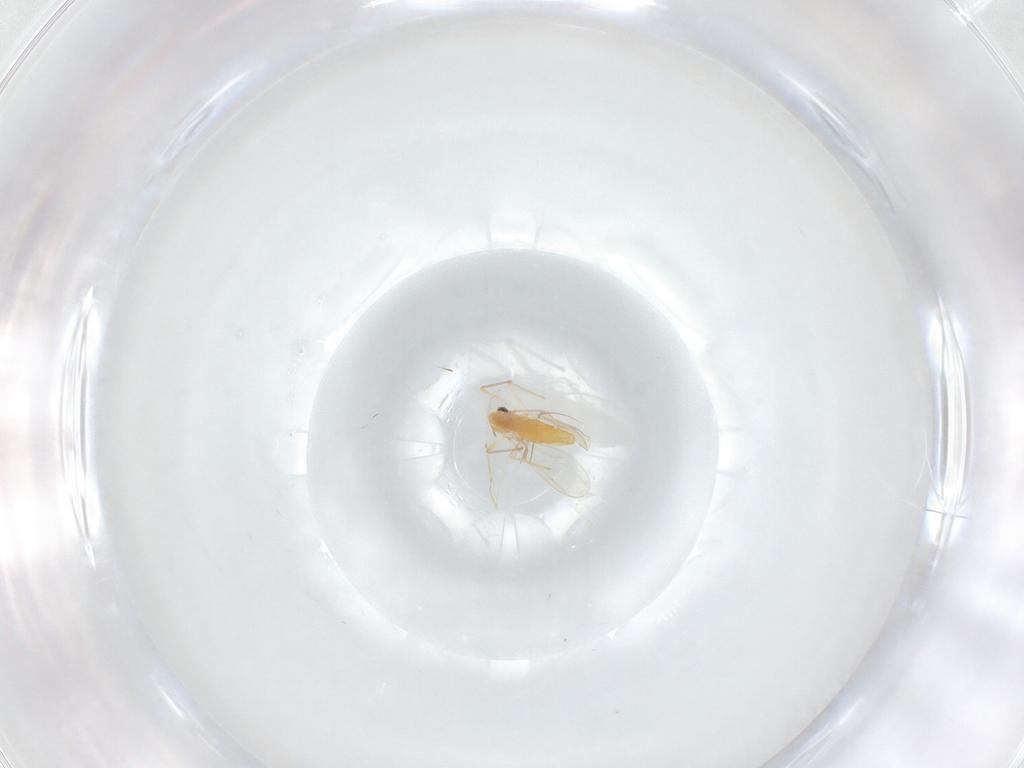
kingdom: Animalia
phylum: Arthropoda
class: Insecta
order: Diptera
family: Chironomidae
